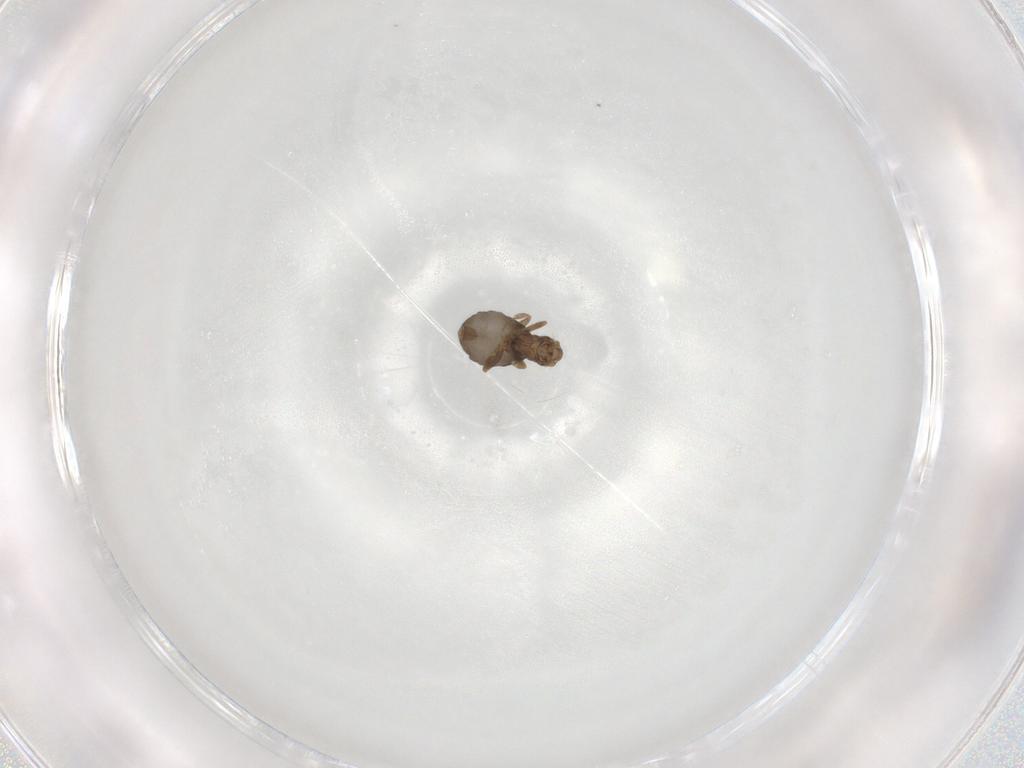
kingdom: Animalia
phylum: Arthropoda
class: Insecta
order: Diptera
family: Phoridae
